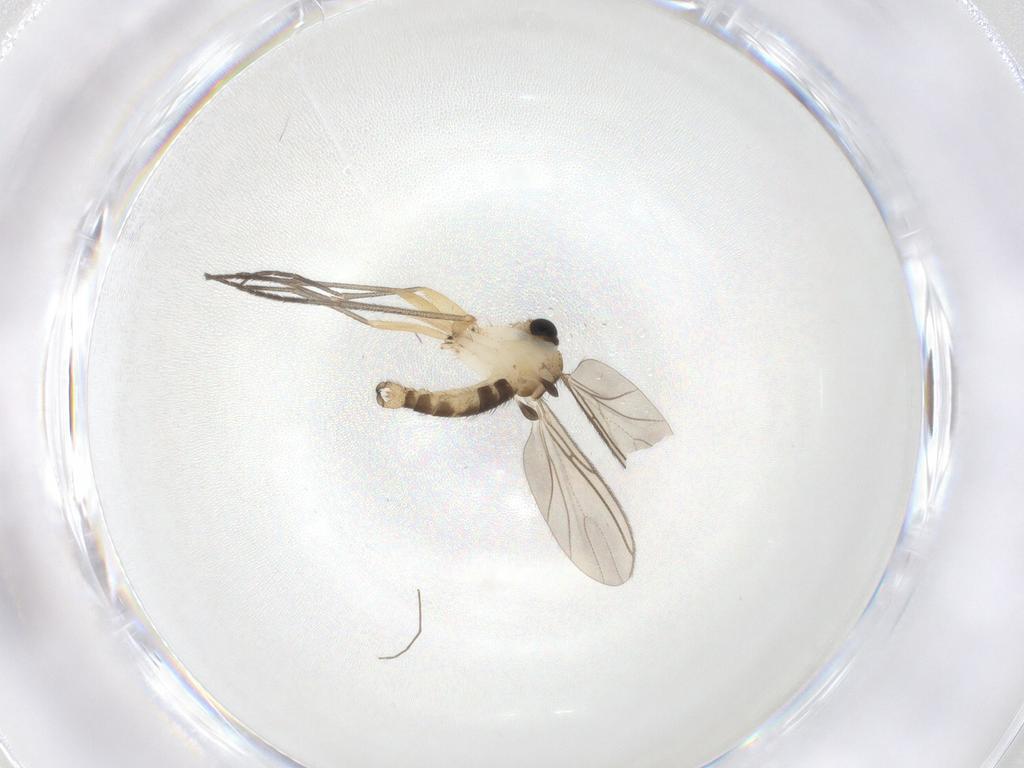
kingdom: Animalia
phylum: Arthropoda
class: Insecta
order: Diptera
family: Sciaridae
